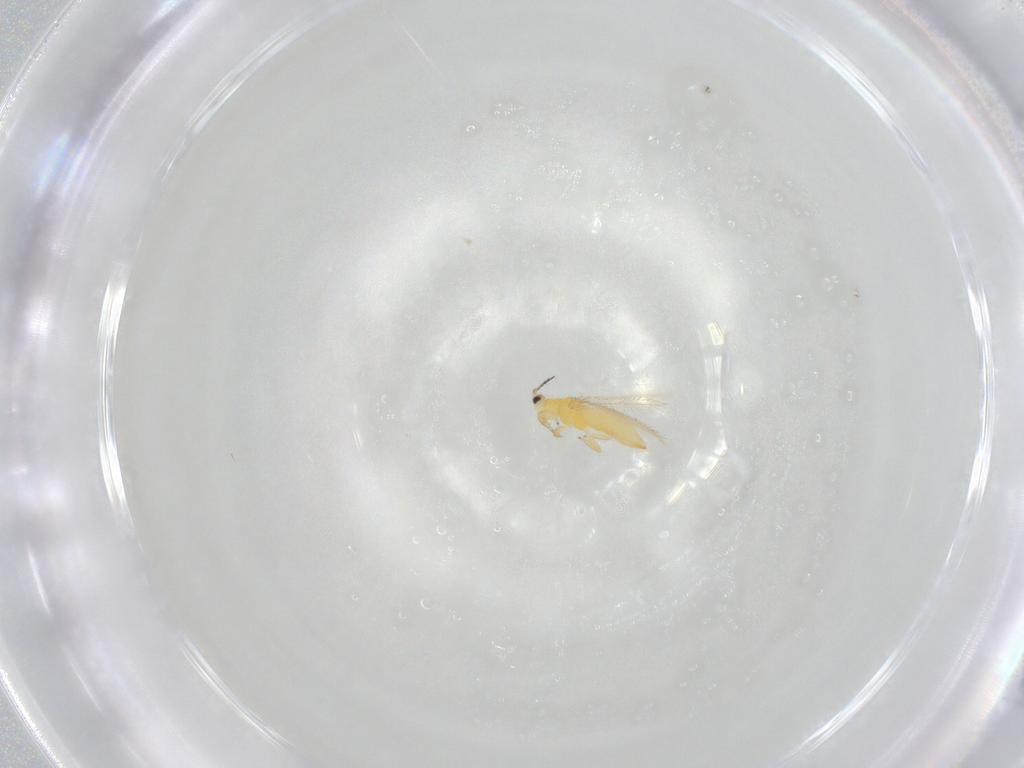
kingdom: Animalia
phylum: Arthropoda
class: Insecta
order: Thysanoptera
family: Melanthripidae
